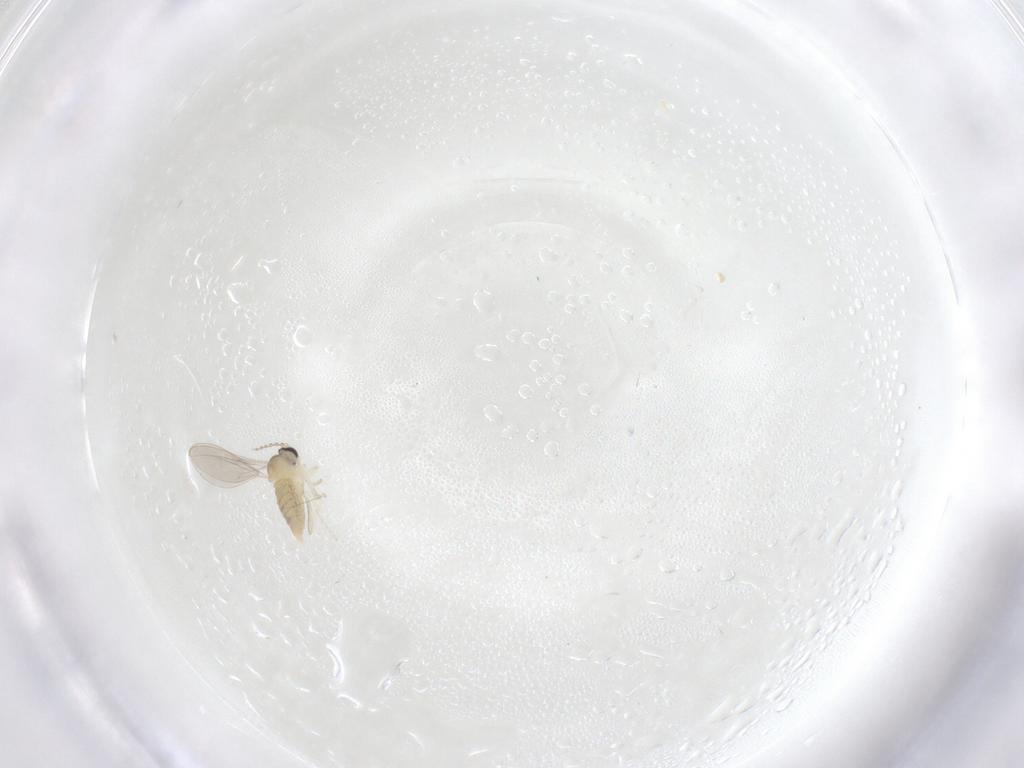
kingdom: Animalia
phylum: Arthropoda
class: Insecta
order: Diptera
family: Cecidomyiidae
